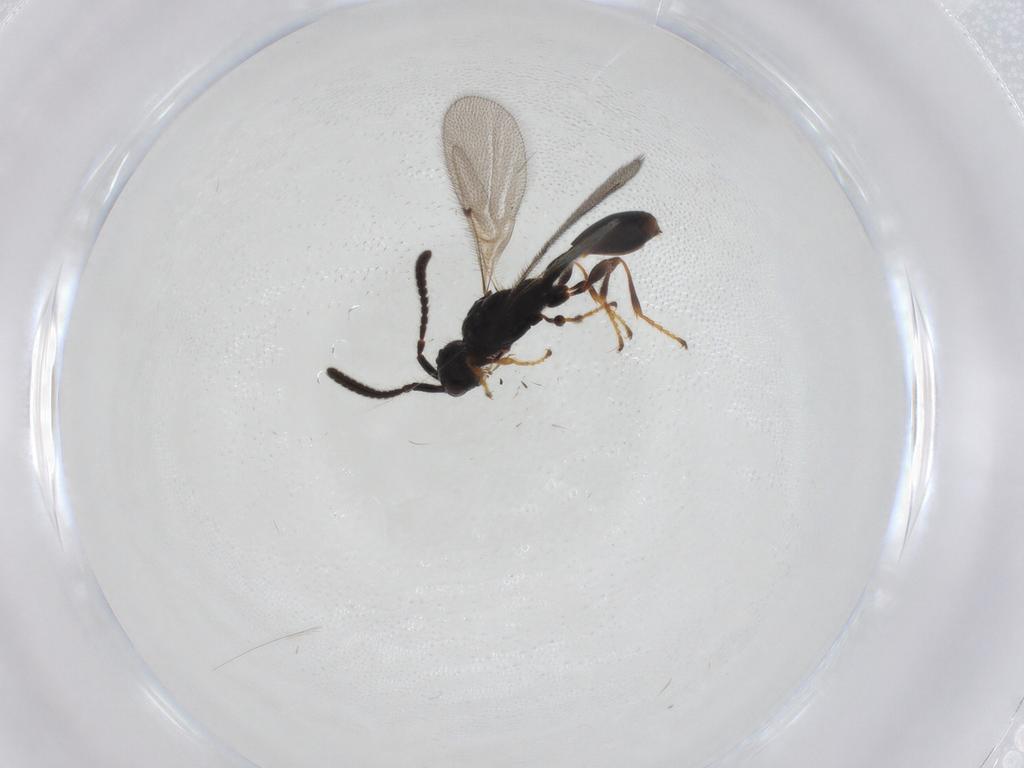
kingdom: Animalia
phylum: Arthropoda
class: Insecta
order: Hymenoptera
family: Diapriidae
